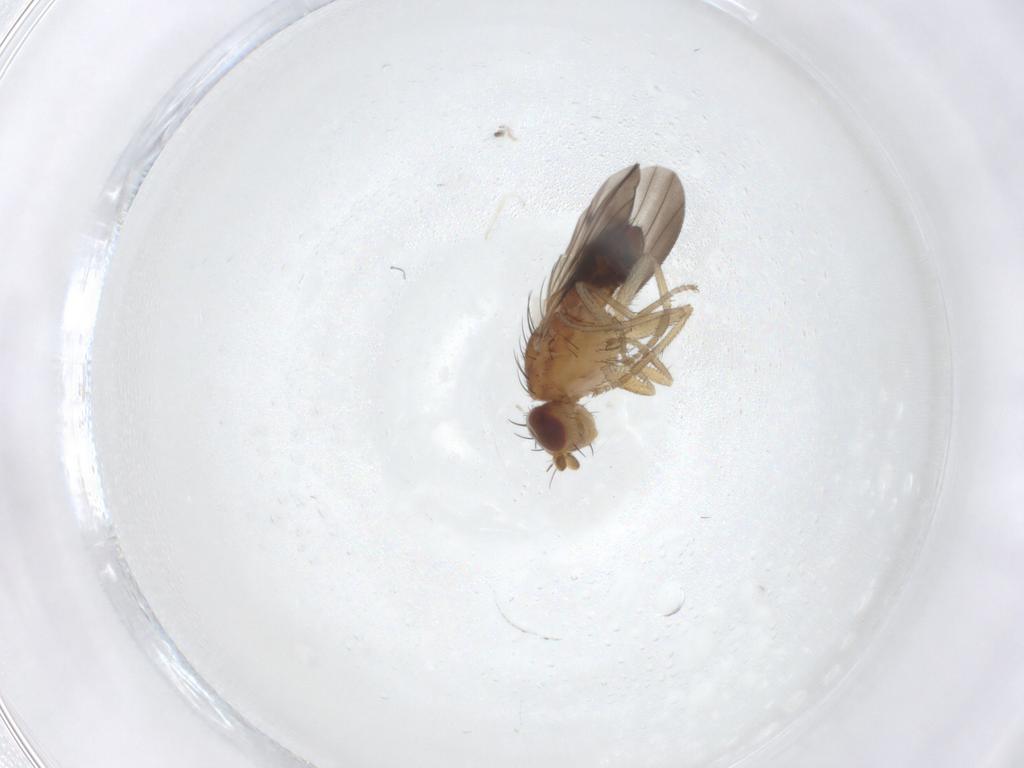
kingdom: Animalia
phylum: Arthropoda
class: Insecta
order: Diptera
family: Heleomyzidae
